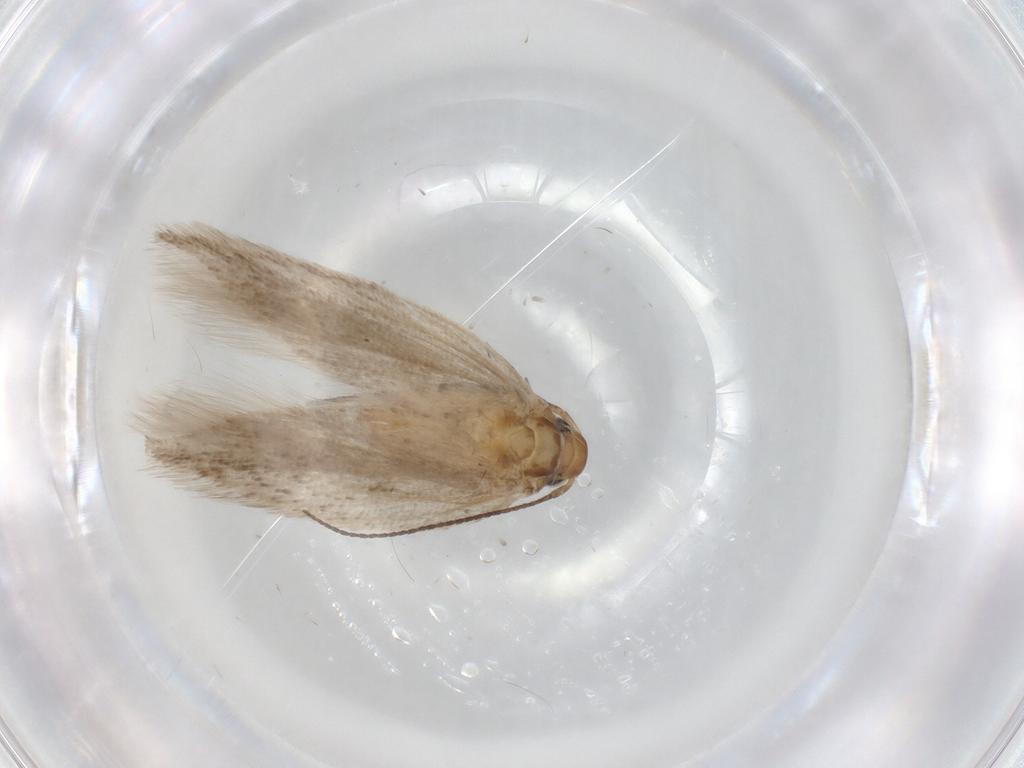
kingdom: Animalia
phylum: Arthropoda
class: Insecta
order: Lepidoptera
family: Gelechiidae
